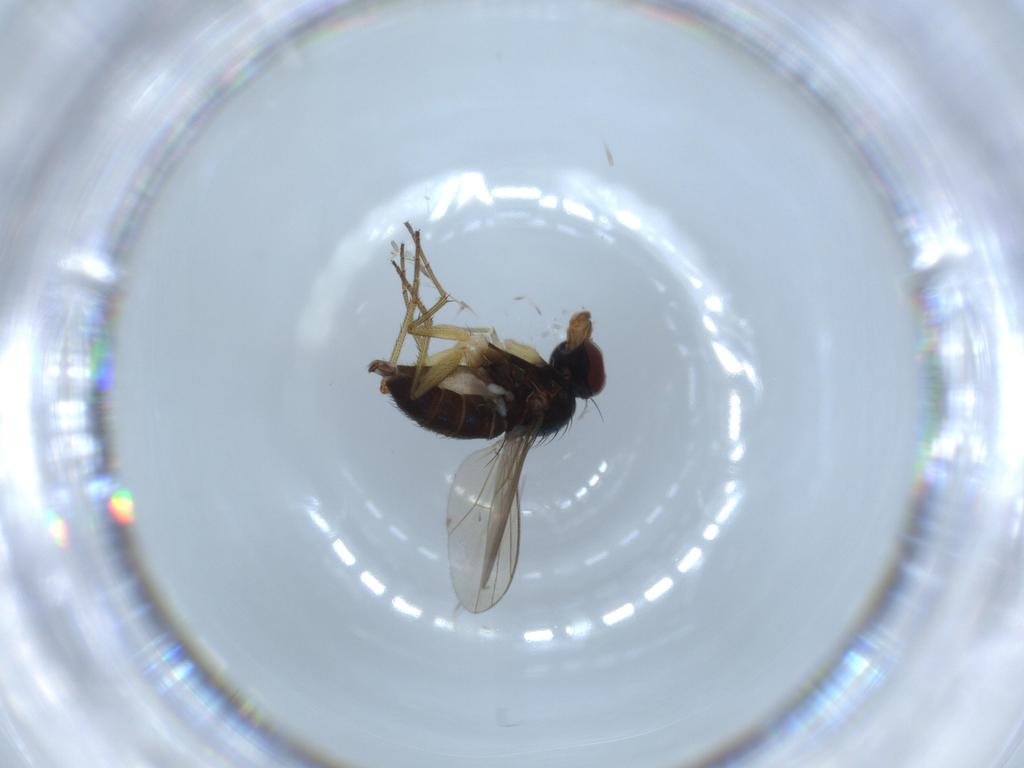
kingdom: Animalia
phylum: Arthropoda
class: Insecta
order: Diptera
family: Dolichopodidae
